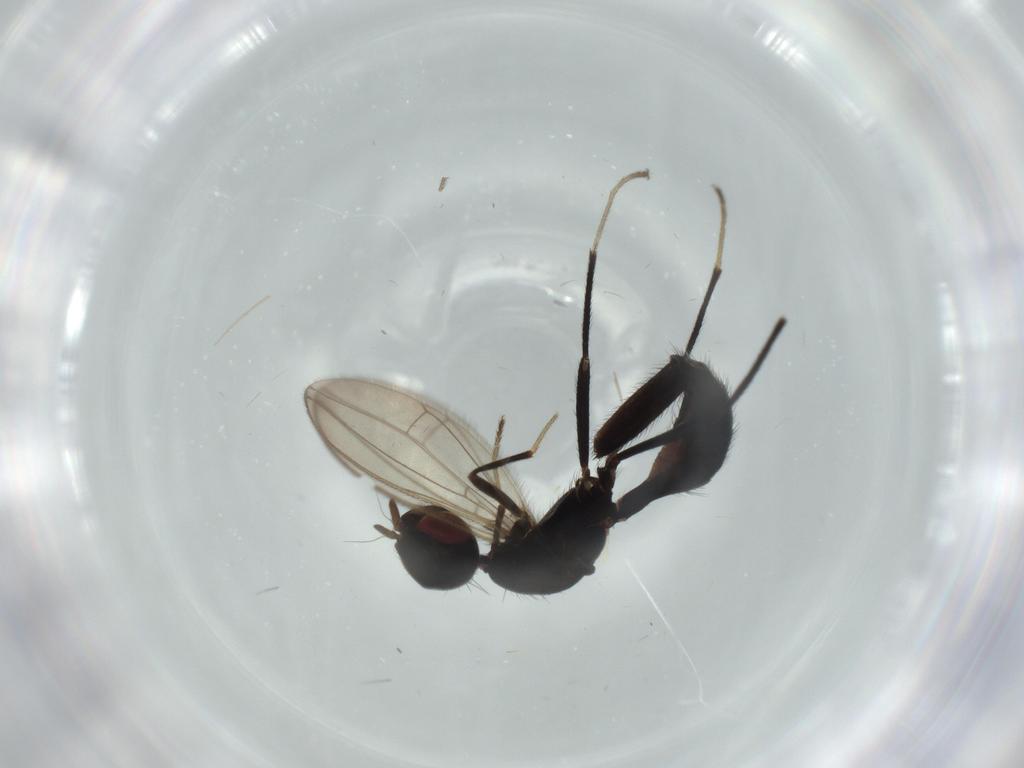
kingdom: Animalia
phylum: Arthropoda
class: Insecta
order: Diptera
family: Richardiidae
